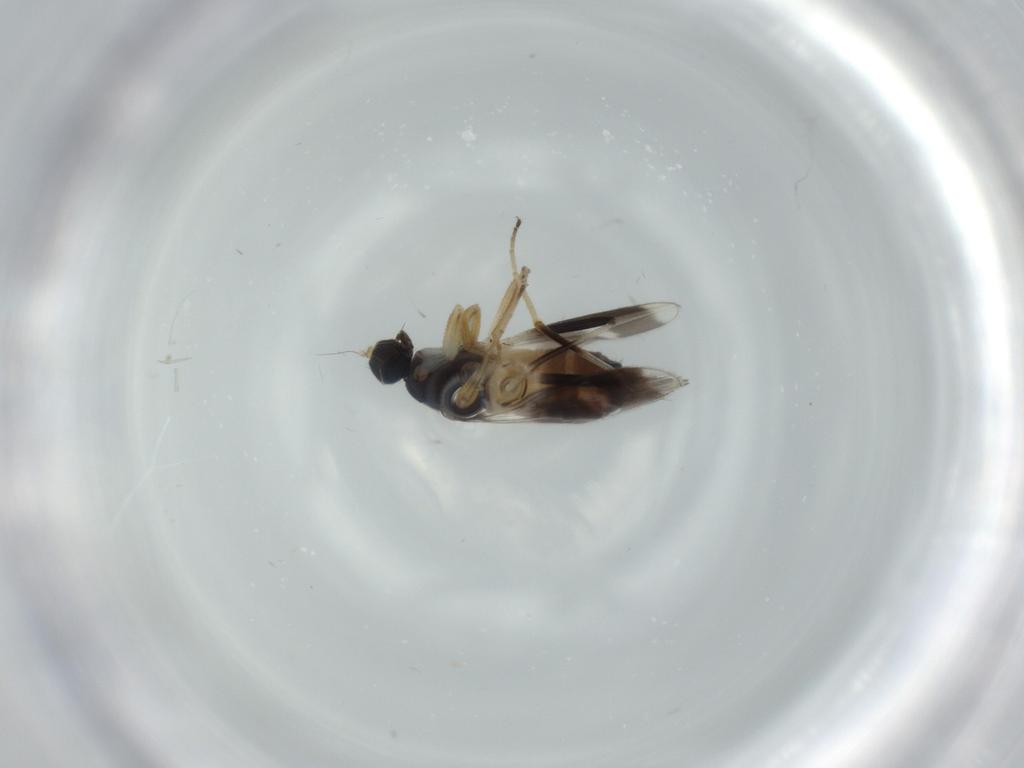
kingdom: Animalia
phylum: Arthropoda
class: Insecta
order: Diptera
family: Hybotidae
